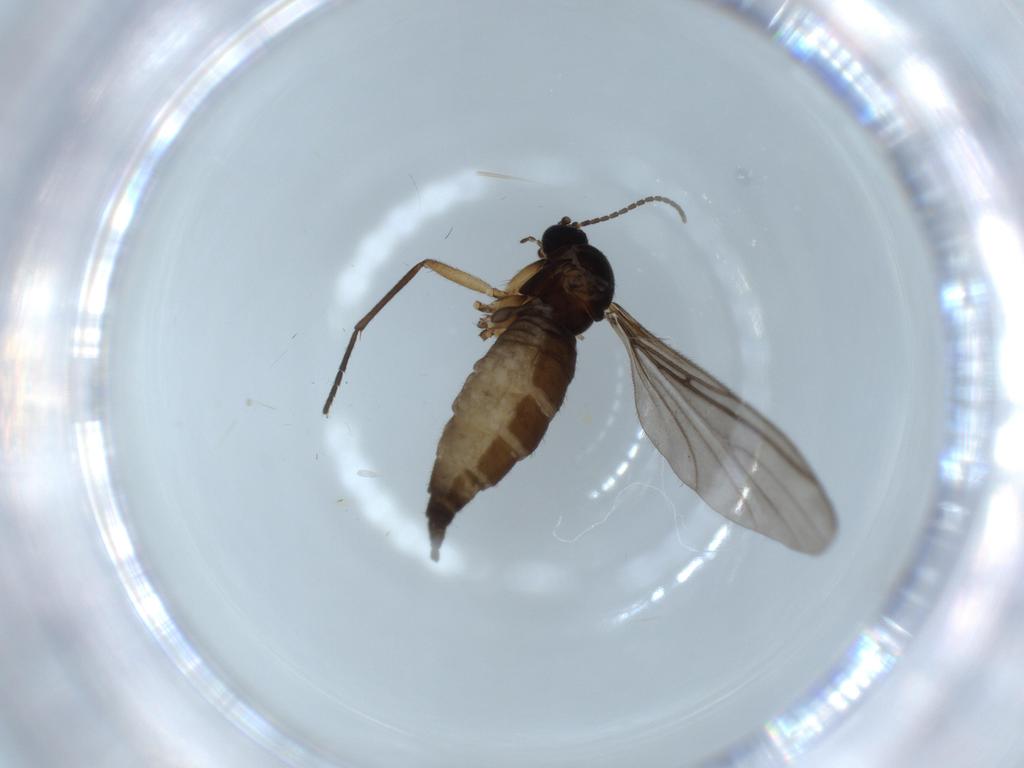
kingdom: Animalia
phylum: Arthropoda
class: Insecta
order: Diptera
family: Sciaridae
